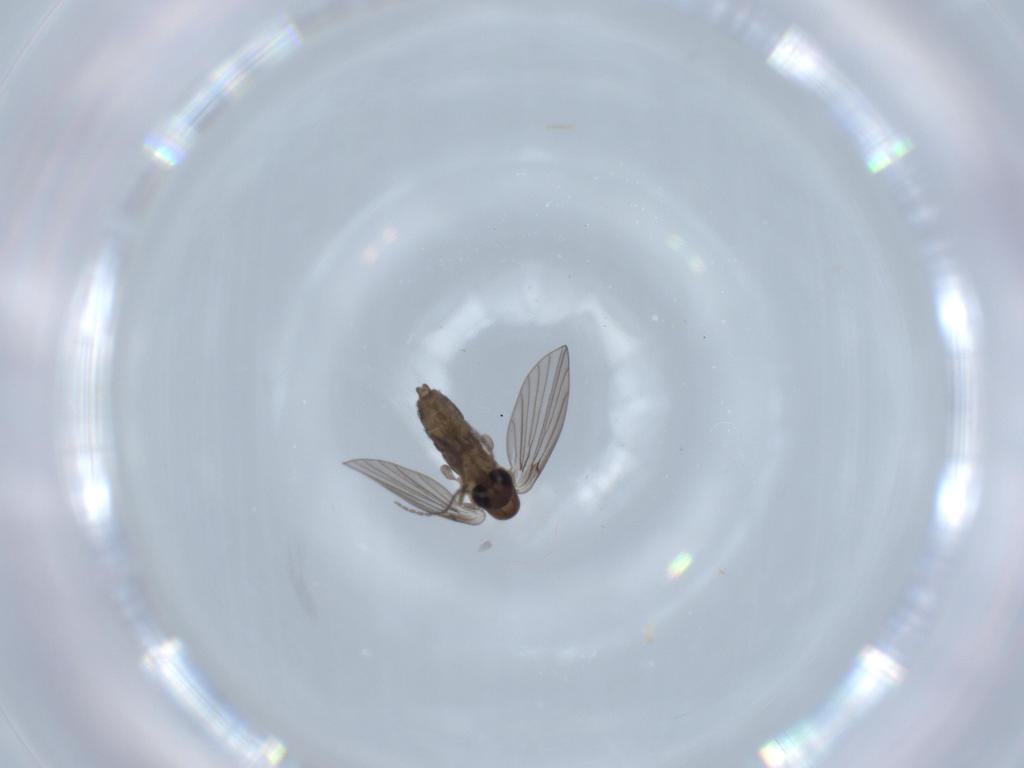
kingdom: Animalia
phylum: Arthropoda
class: Insecta
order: Diptera
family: Psychodidae
